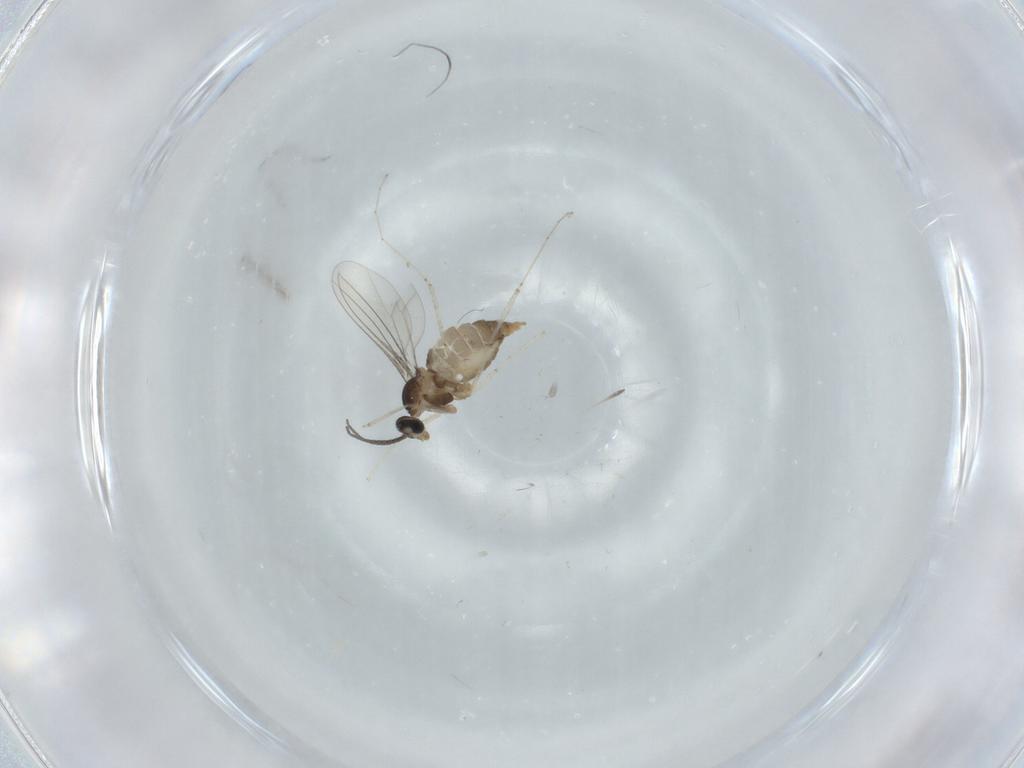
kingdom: Animalia
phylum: Arthropoda
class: Insecta
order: Diptera
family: Cecidomyiidae
